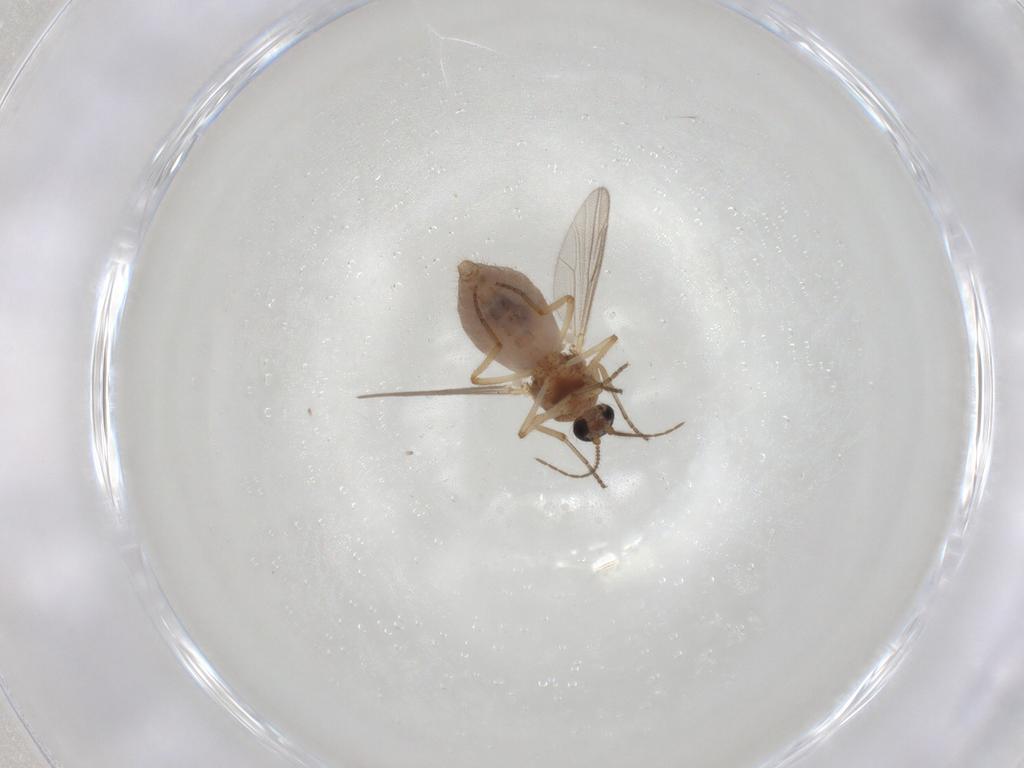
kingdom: Animalia
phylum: Arthropoda
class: Insecta
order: Diptera
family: Ceratopogonidae
